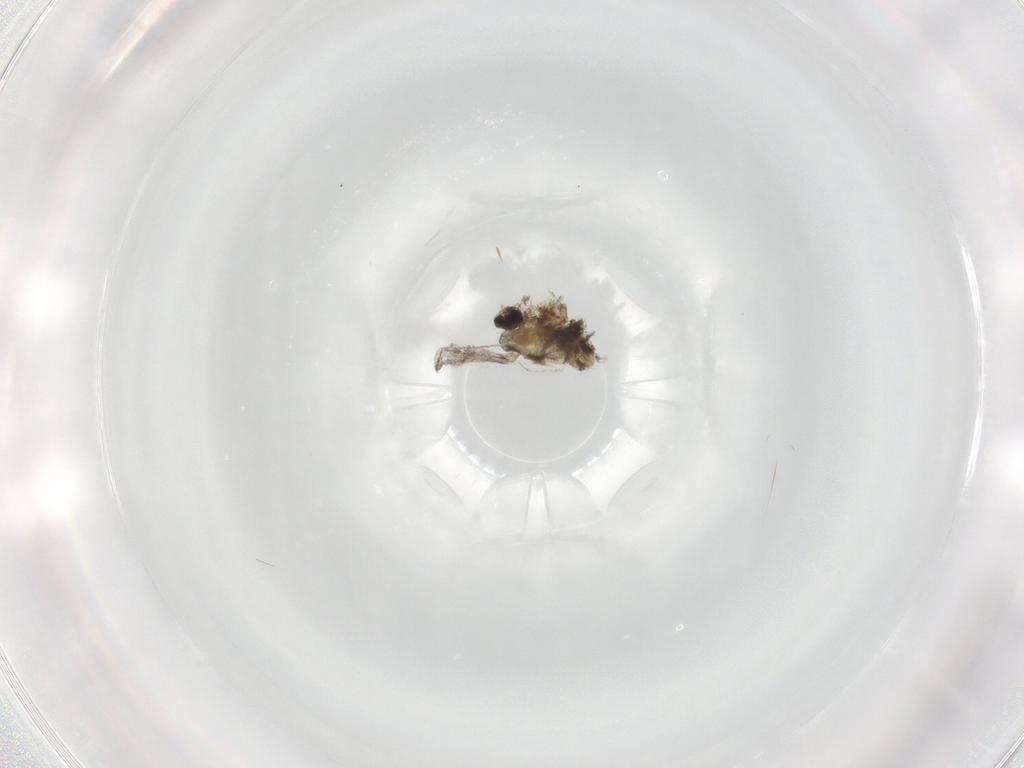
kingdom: Animalia
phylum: Arthropoda
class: Insecta
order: Diptera
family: Cecidomyiidae
